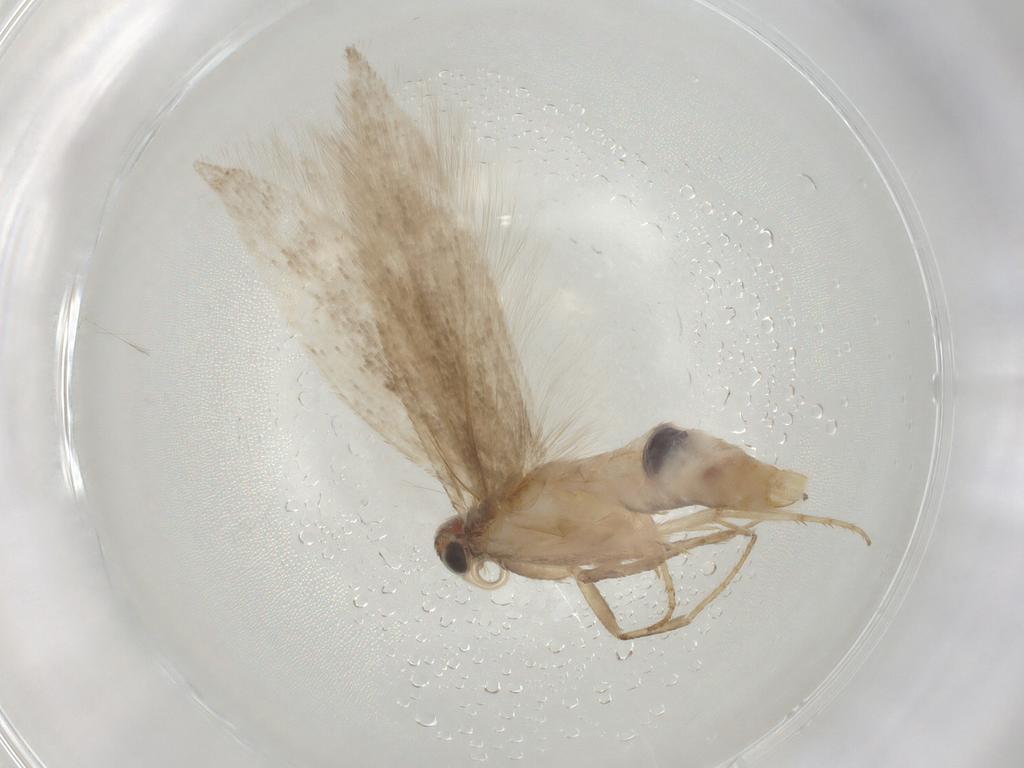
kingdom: Animalia
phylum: Arthropoda
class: Insecta
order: Lepidoptera
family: Gelechiidae
